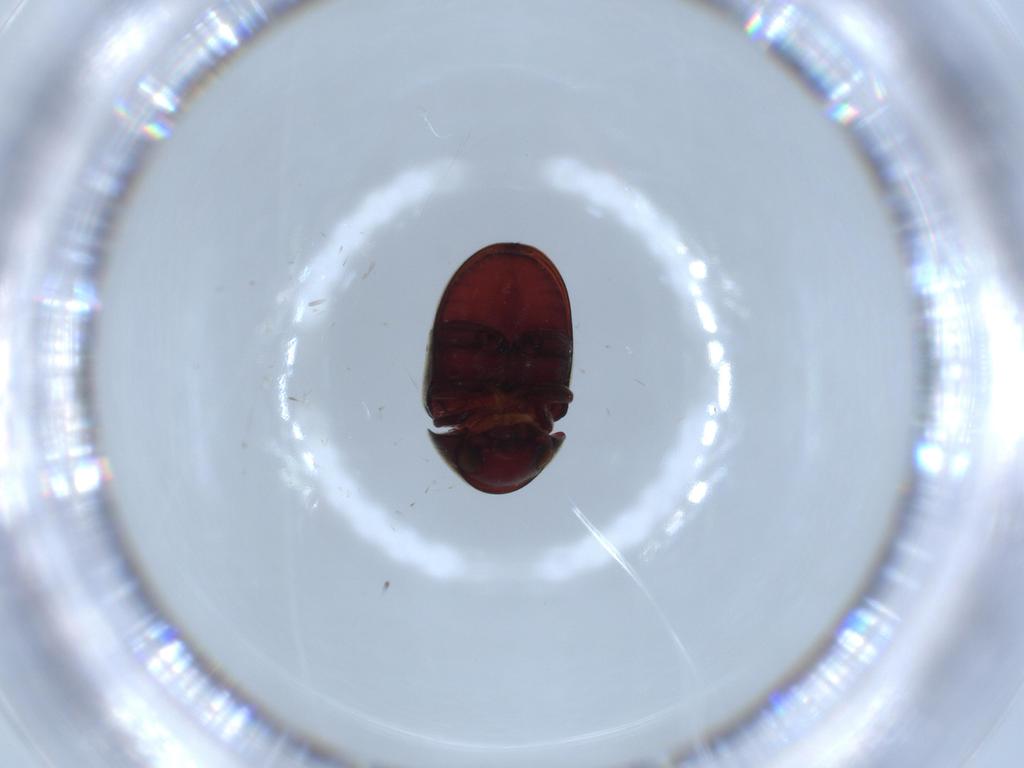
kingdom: Animalia
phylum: Arthropoda
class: Insecta
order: Coleoptera
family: Ptinidae
